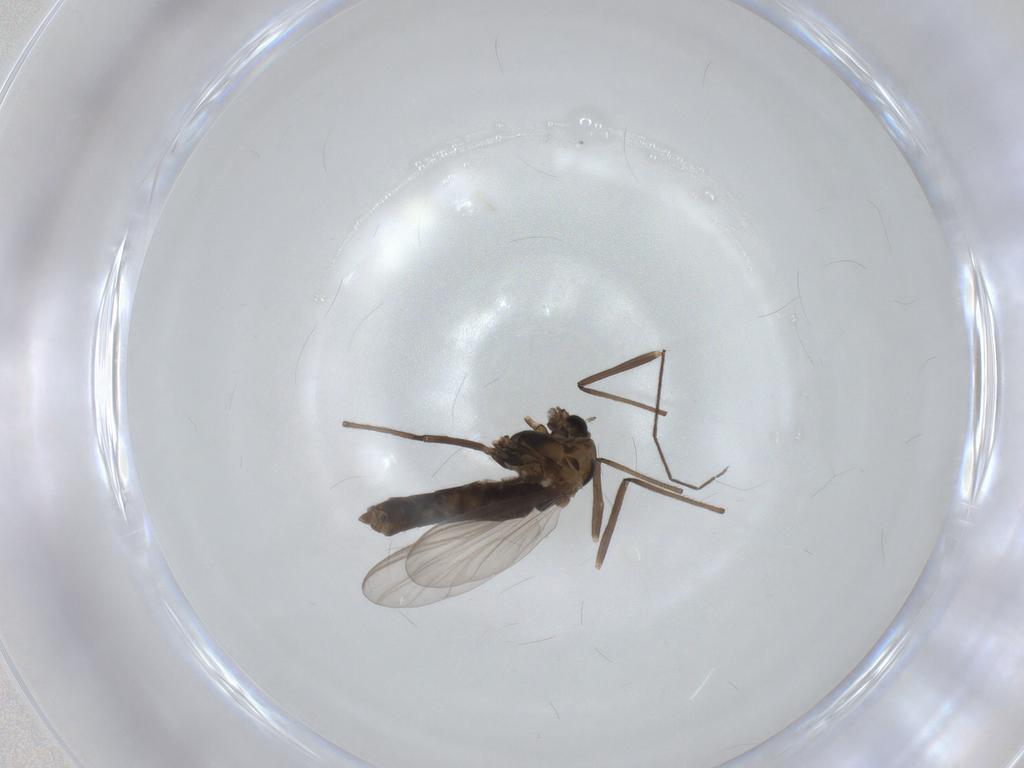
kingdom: Animalia
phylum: Arthropoda
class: Insecta
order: Diptera
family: Chironomidae
